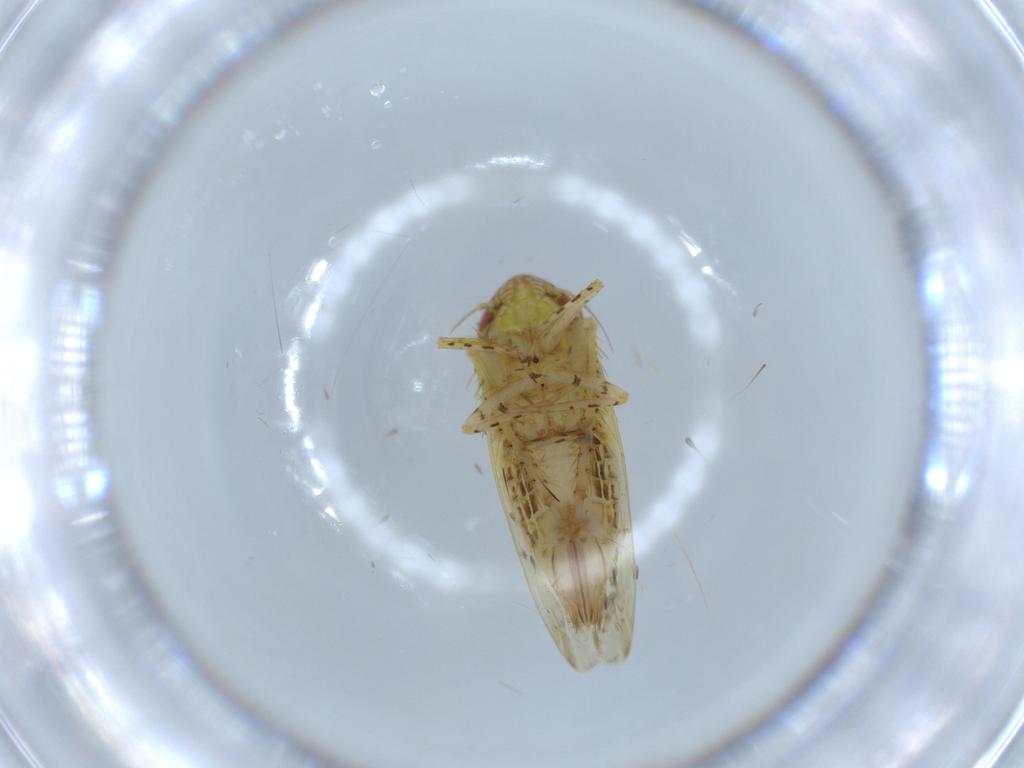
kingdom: Animalia
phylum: Arthropoda
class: Insecta
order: Hemiptera
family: Cicadellidae
